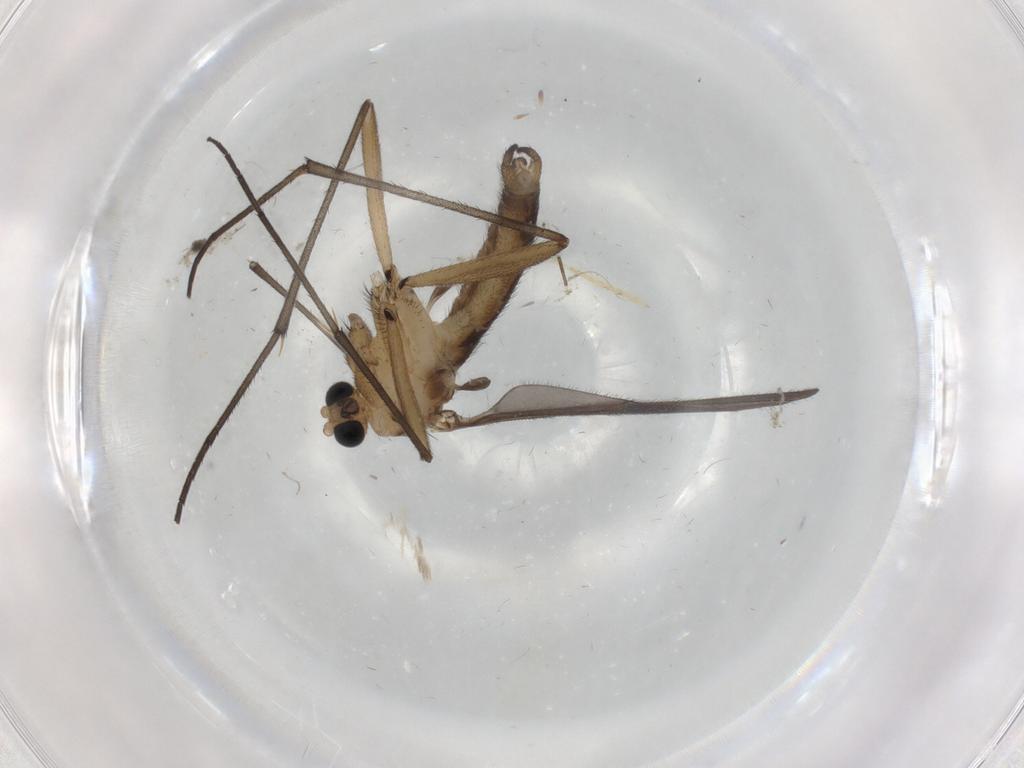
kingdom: Animalia
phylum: Arthropoda
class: Insecta
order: Diptera
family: Sciaridae
